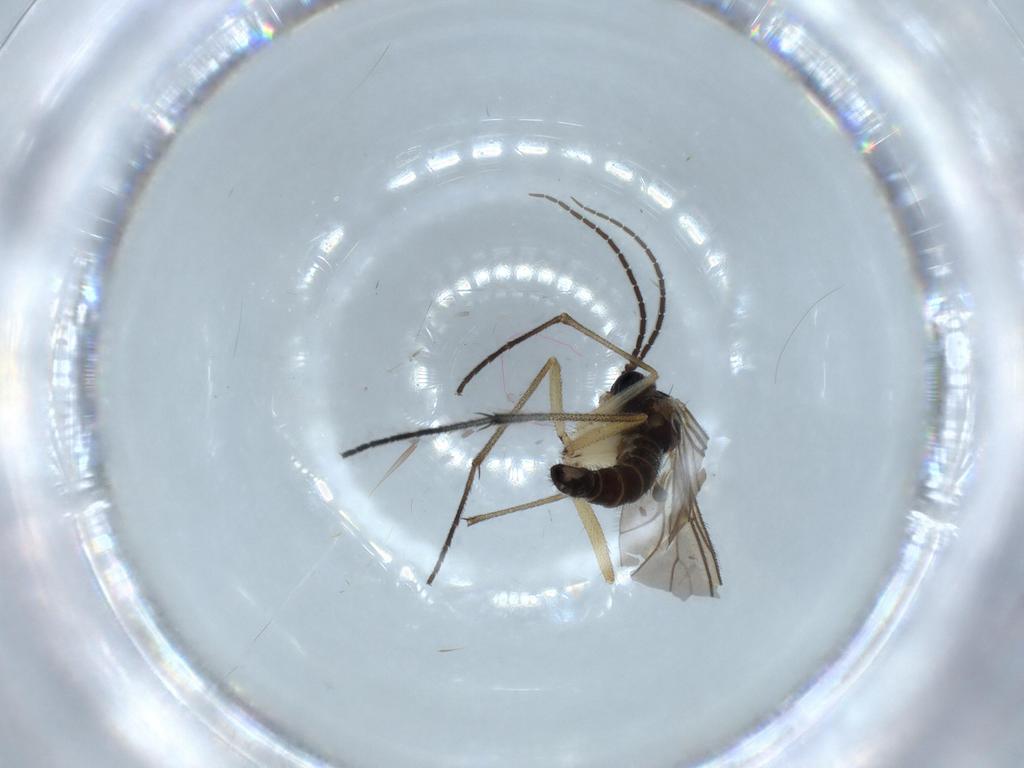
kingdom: Animalia
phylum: Arthropoda
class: Insecta
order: Diptera
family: Sciaridae
